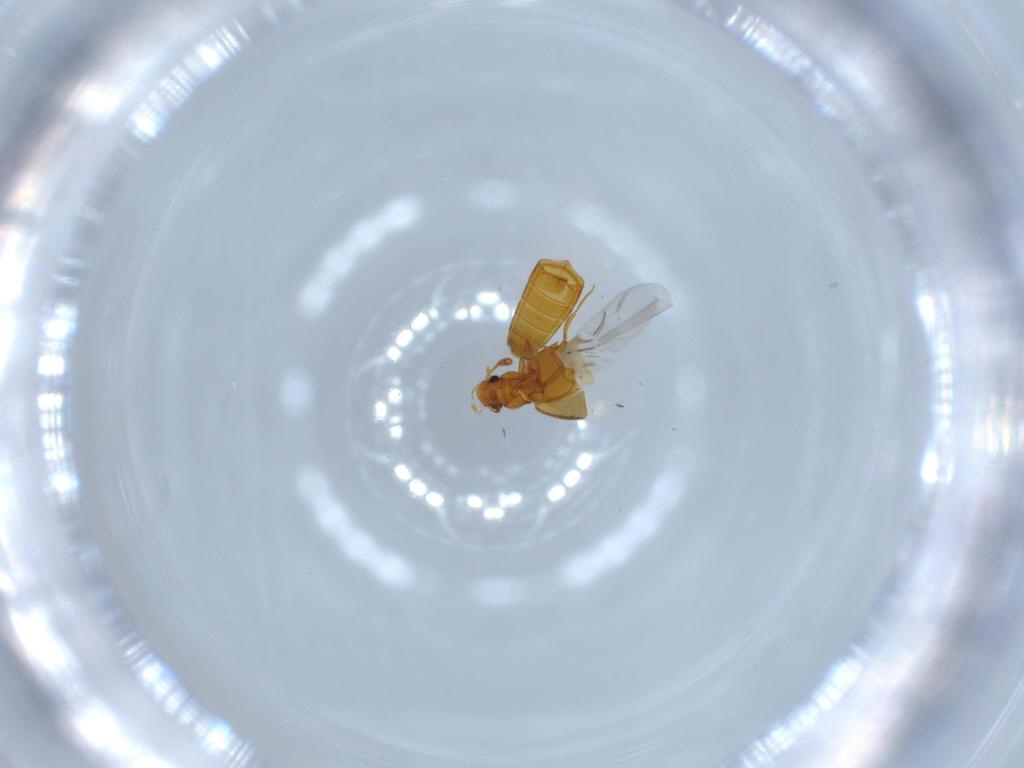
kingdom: Animalia
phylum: Arthropoda
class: Insecta
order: Coleoptera
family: Staphylinidae
